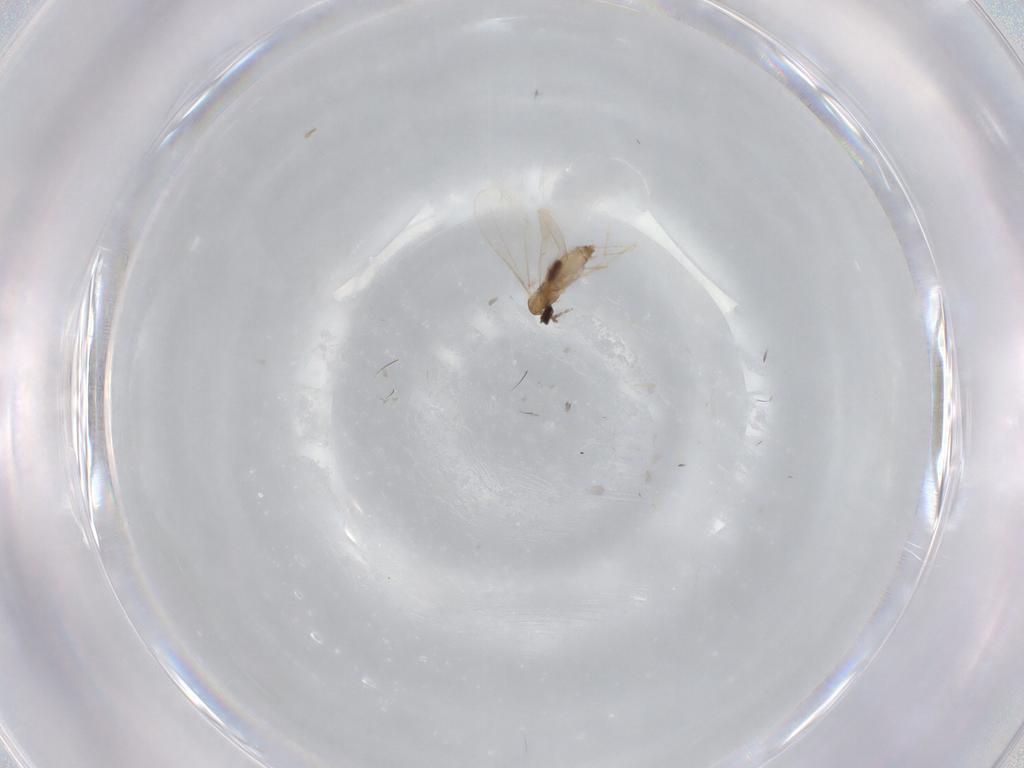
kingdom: Animalia
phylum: Arthropoda
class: Insecta
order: Diptera
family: Cecidomyiidae
